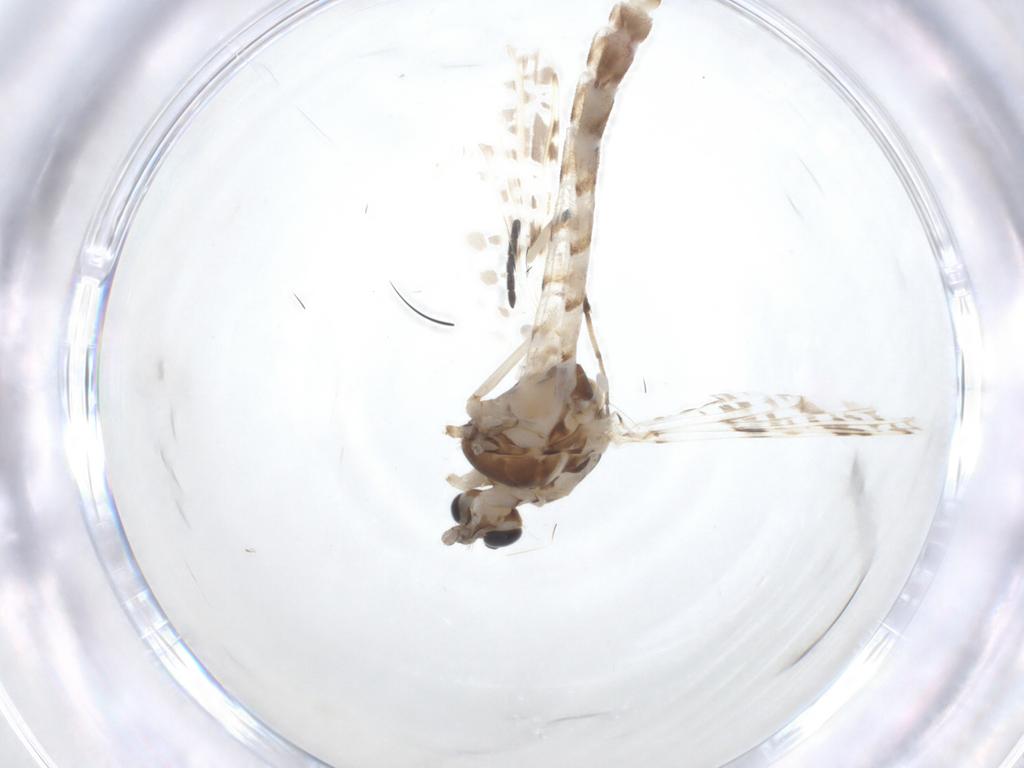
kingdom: Animalia
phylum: Arthropoda
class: Insecta
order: Diptera
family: Chironomidae
